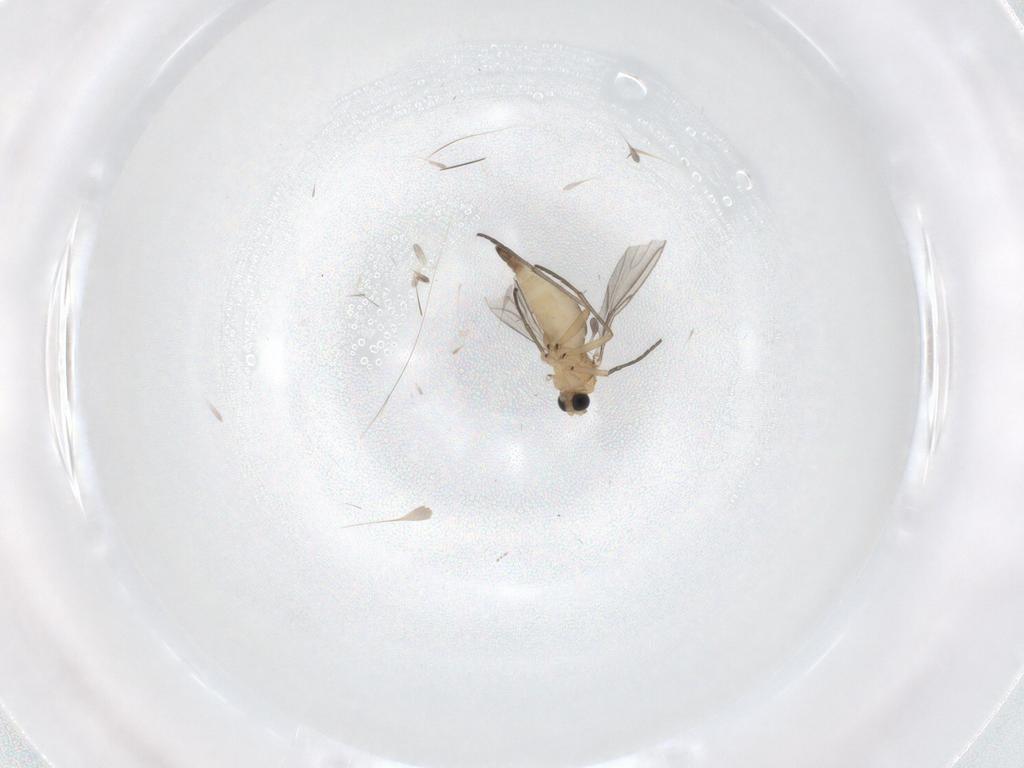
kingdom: Animalia
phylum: Arthropoda
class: Insecta
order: Diptera
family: Cecidomyiidae
